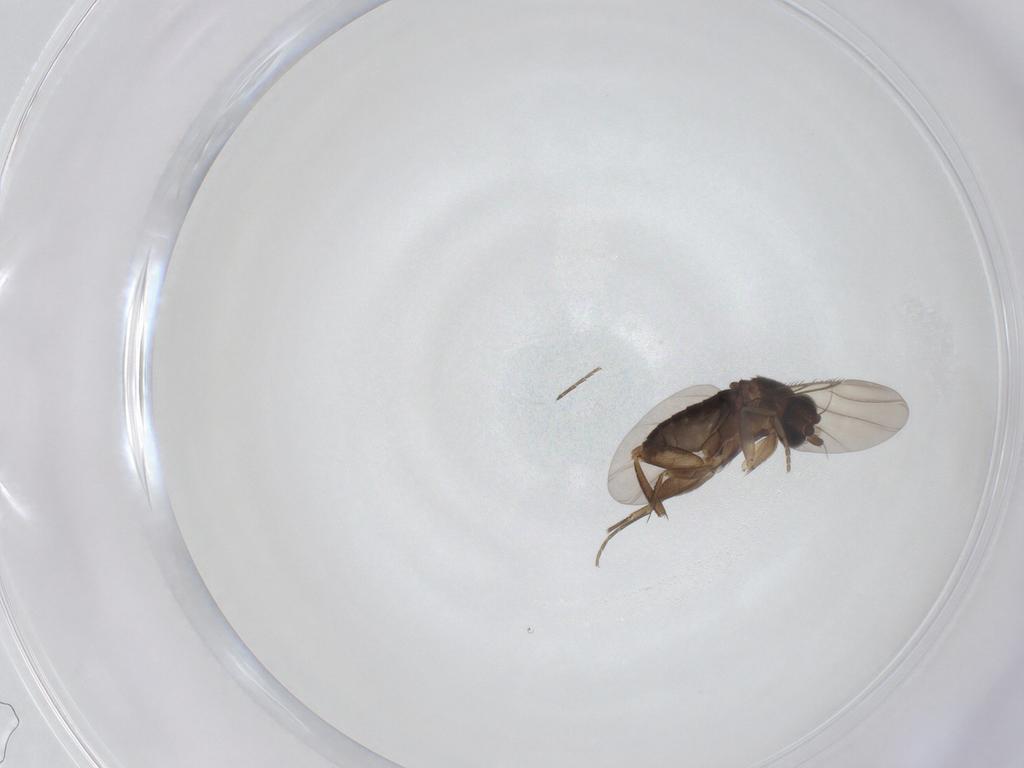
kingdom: Animalia
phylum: Arthropoda
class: Insecta
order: Diptera
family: Phoridae
